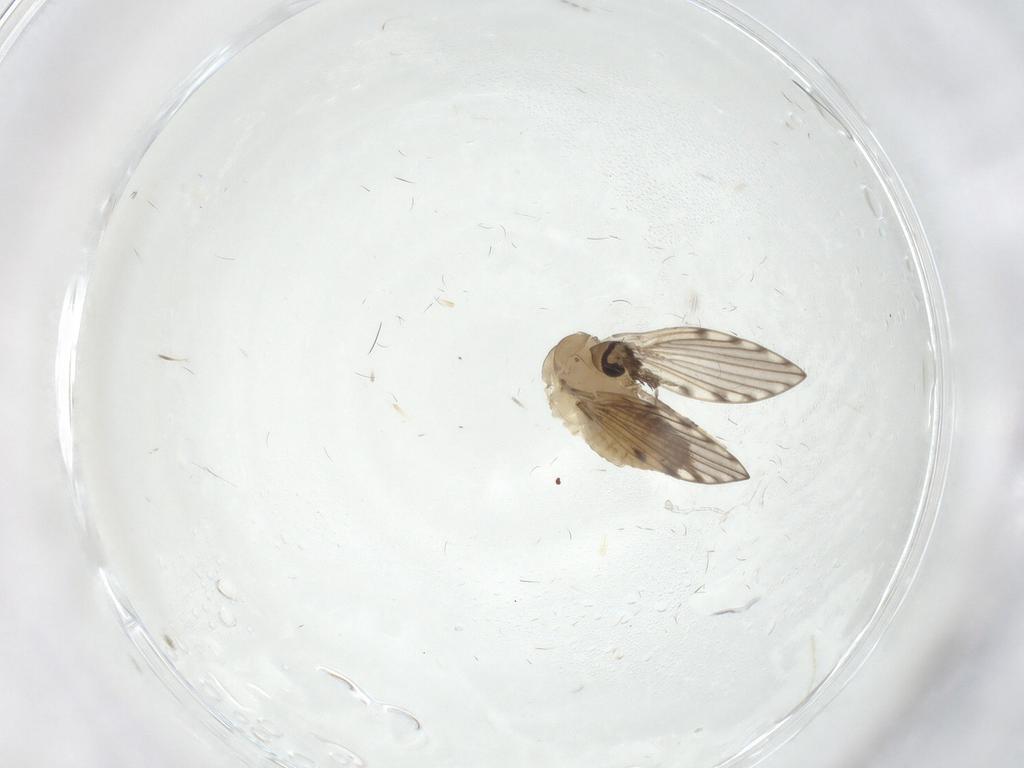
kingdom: Animalia
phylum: Arthropoda
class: Insecta
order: Diptera
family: Psychodidae
